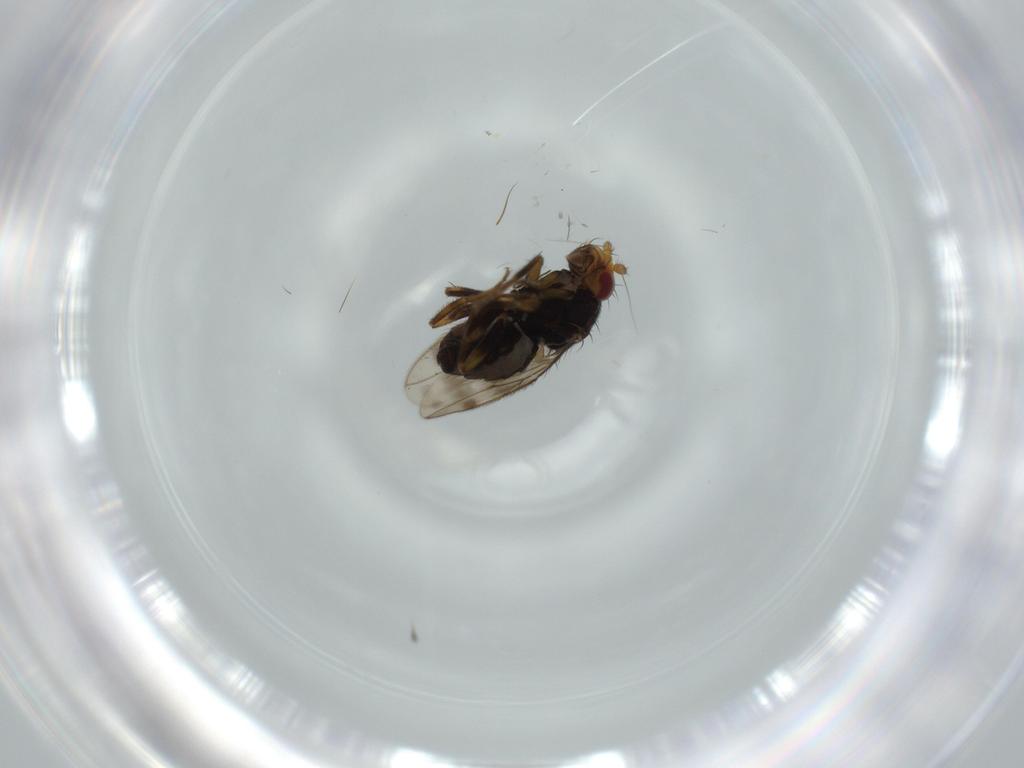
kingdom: Animalia
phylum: Arthropoda
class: Insecta
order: Diptera
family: Sphaeroceridae
